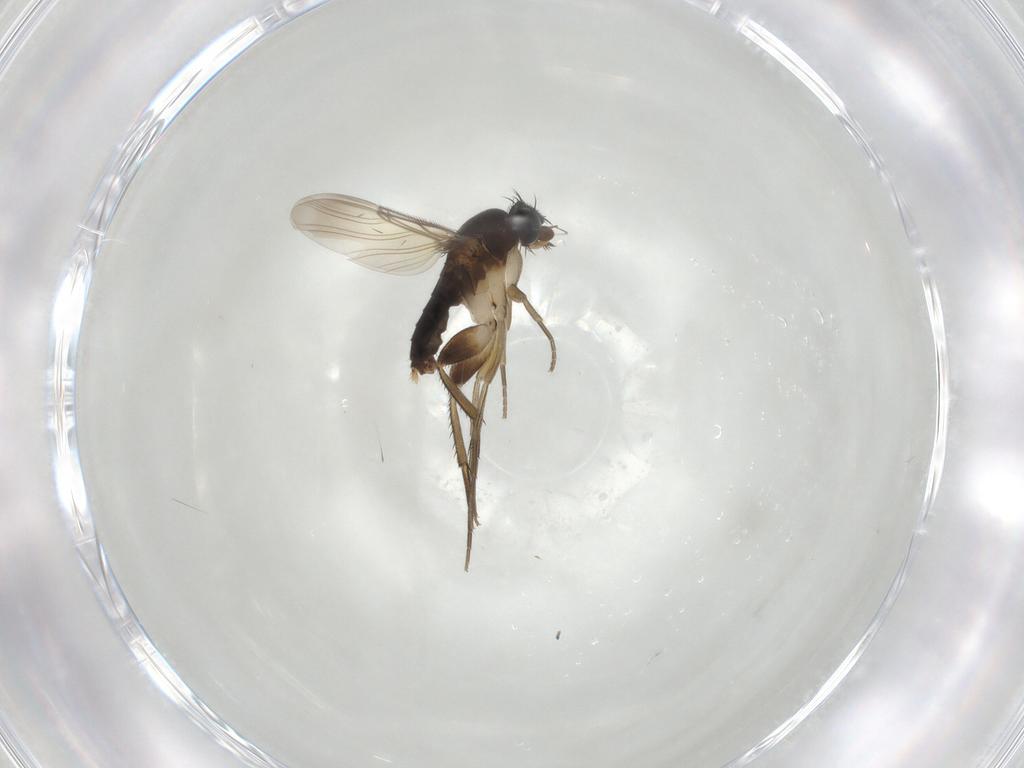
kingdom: Animalia
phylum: Arthropoda
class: Insecta
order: Diptera
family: Phoridae
